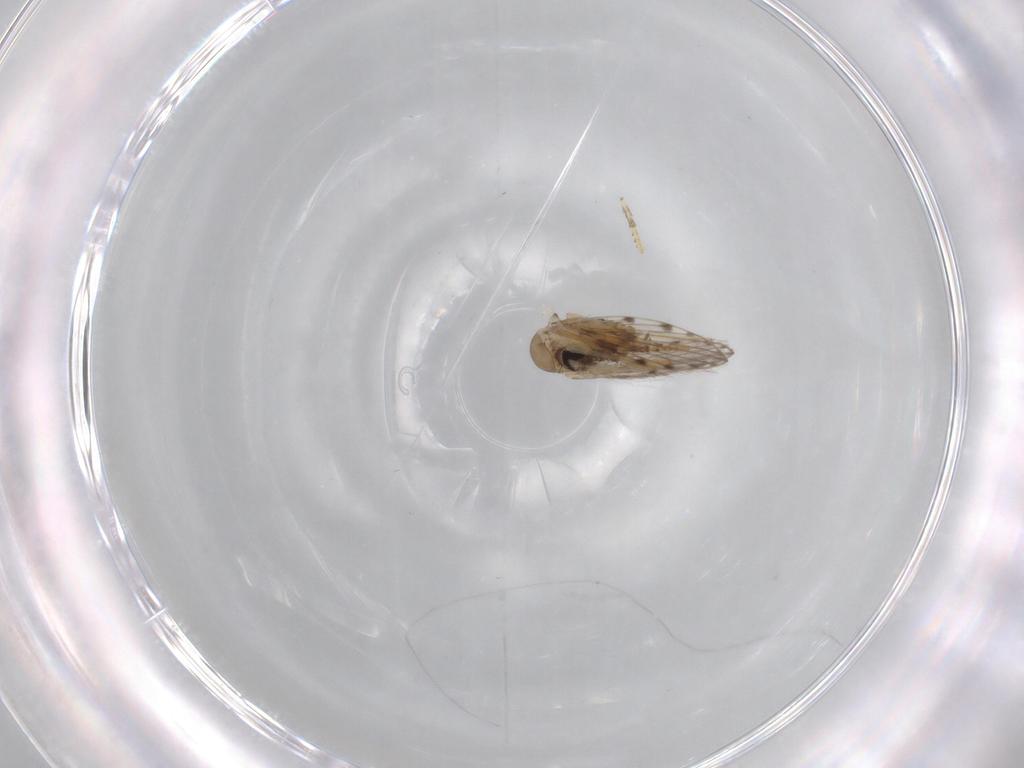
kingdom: Animalia
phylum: Arthropoda
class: Insecta
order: Diptera
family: Psychodidae
